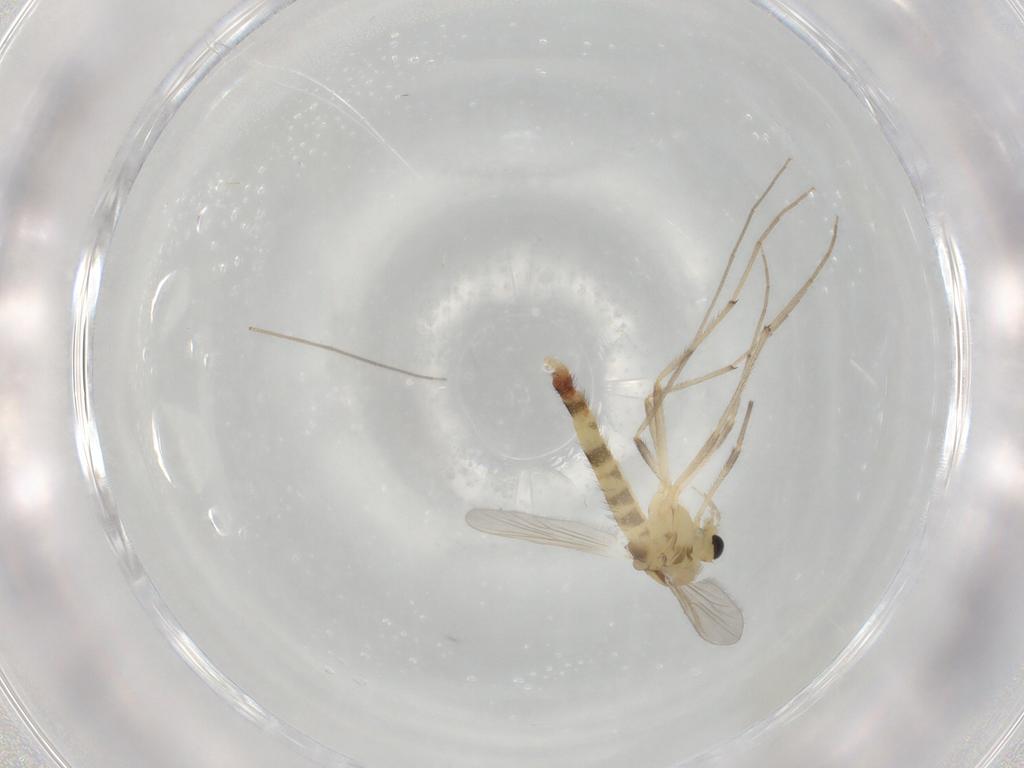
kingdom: Animalia
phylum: Arthropoda
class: Insecta
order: Diptera
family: Chironomidae
